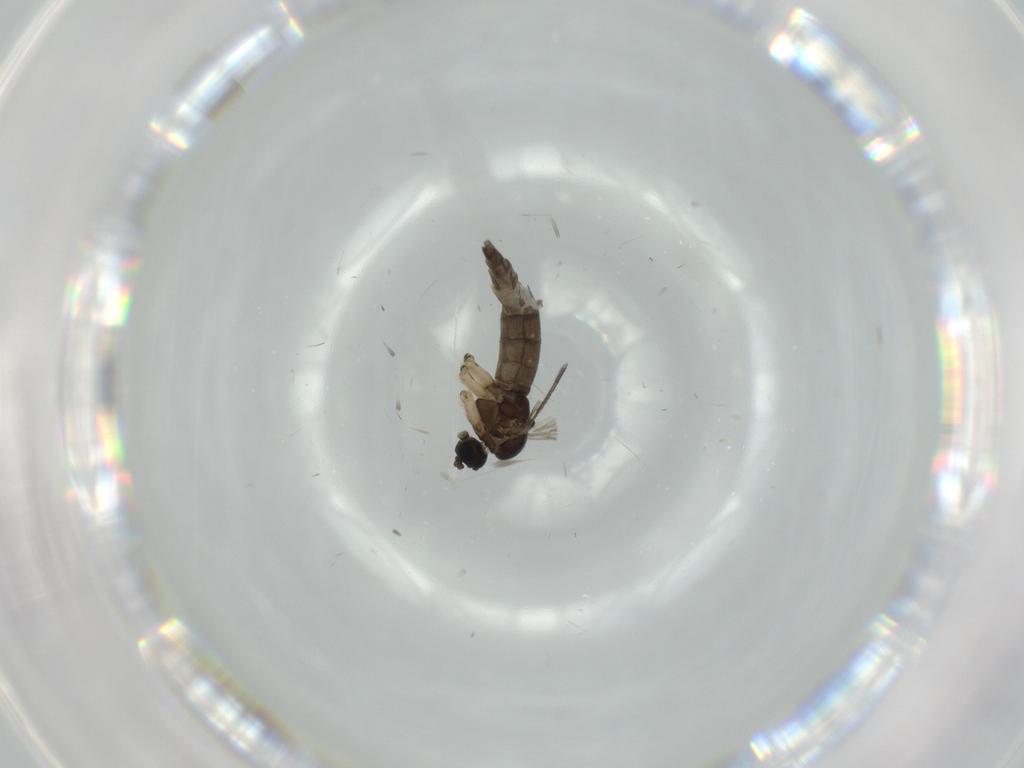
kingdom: Animalia
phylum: Arthropoda
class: Insecta
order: Diptera
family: Sciaridae
